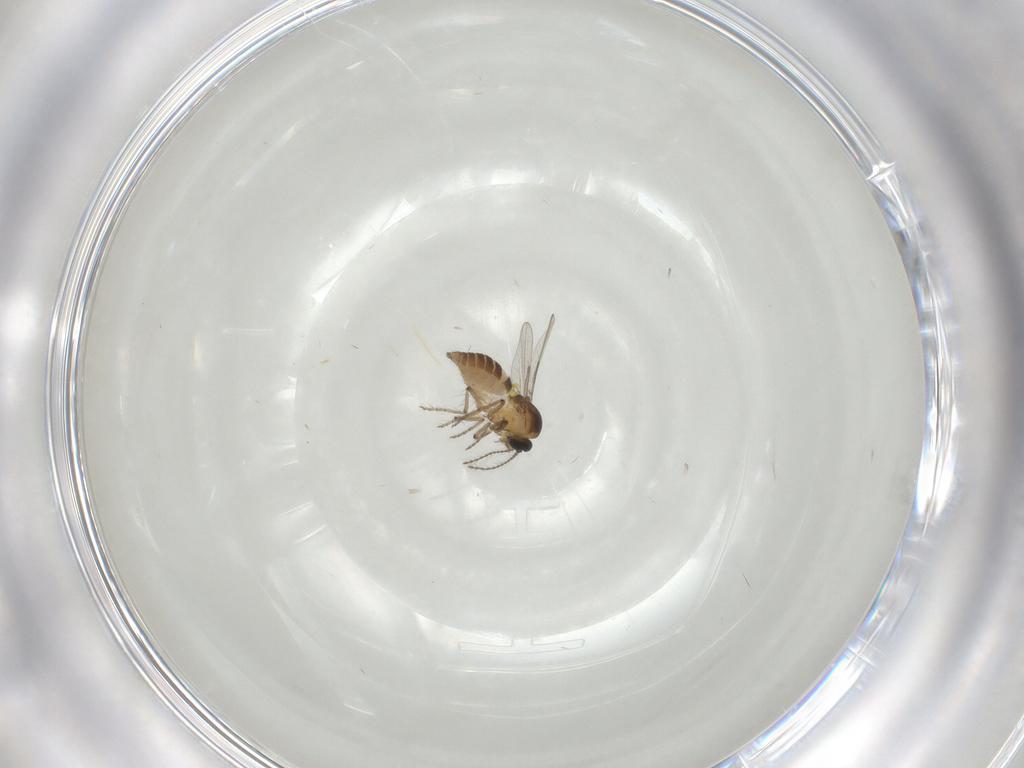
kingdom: Animalia
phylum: Arthropoda
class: Insecta
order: Diptera
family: Sciaridae
